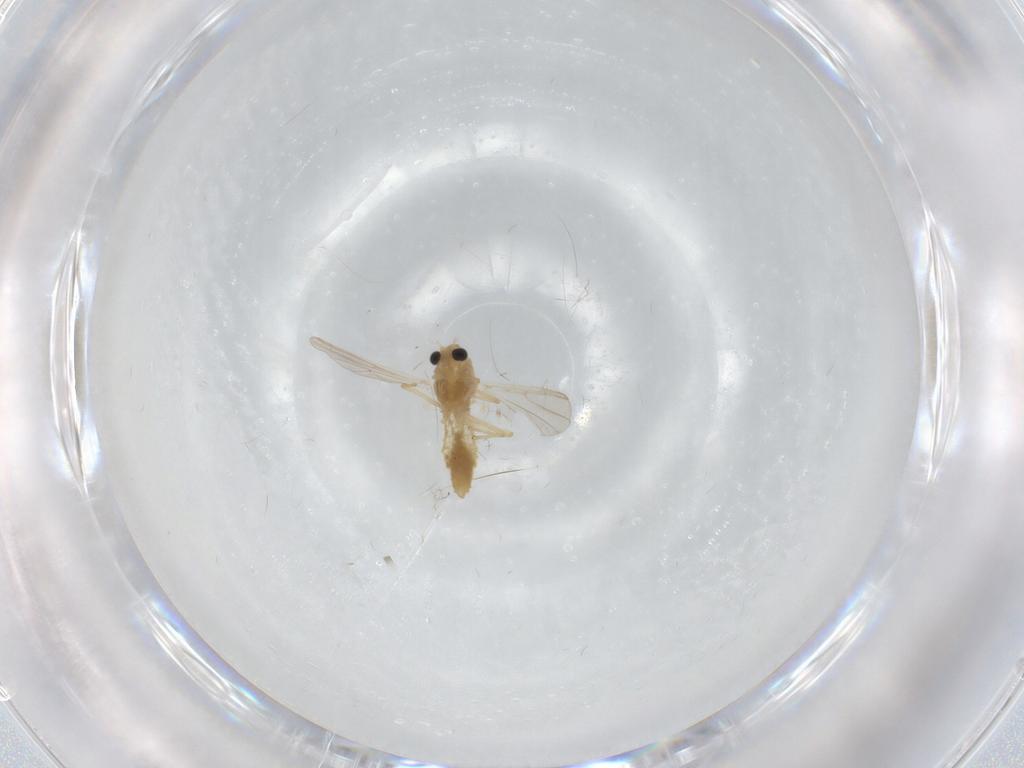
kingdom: Animalia
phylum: Arthropoda
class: Insecta
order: Diptera
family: Chironomidae
